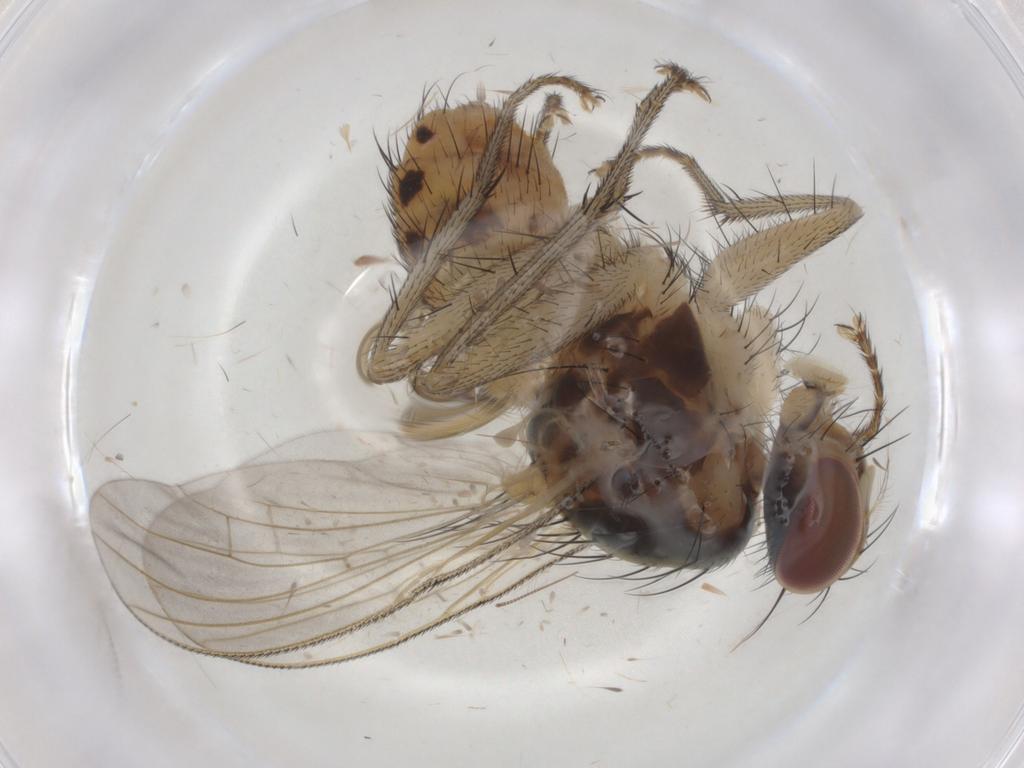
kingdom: Animalia
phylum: Arthropoda
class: Insecta
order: Diptera
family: Muscidae
